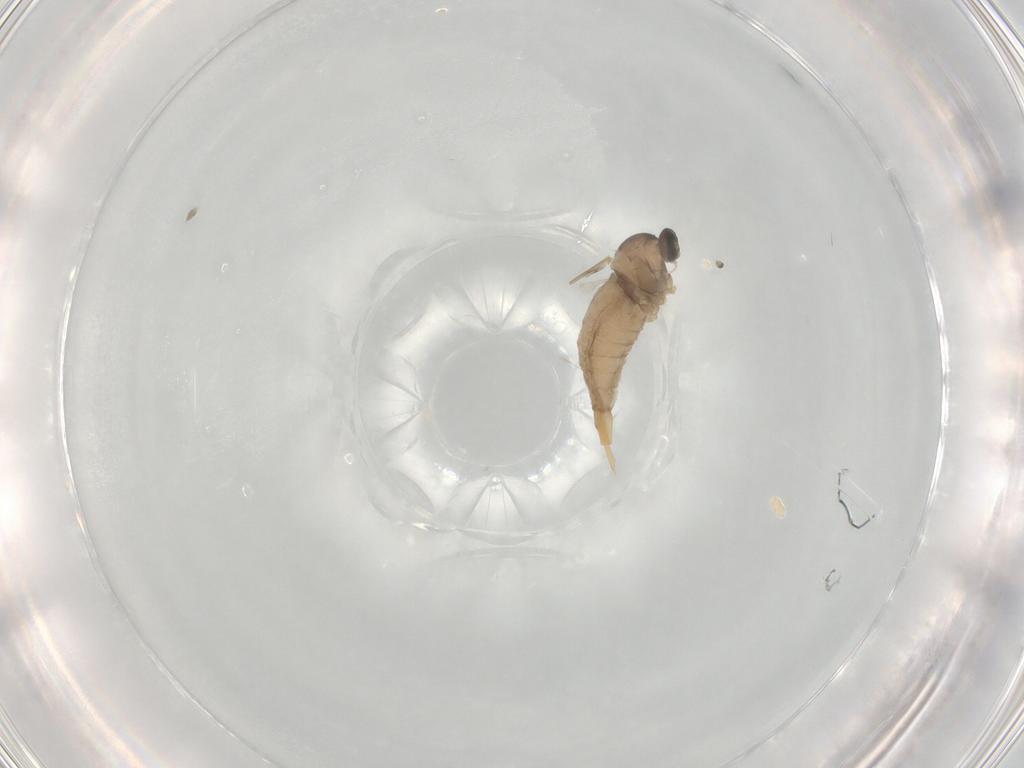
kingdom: Animalia
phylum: Arthropoda
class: Insecta
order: Diptera
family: Cecidomyiidae
